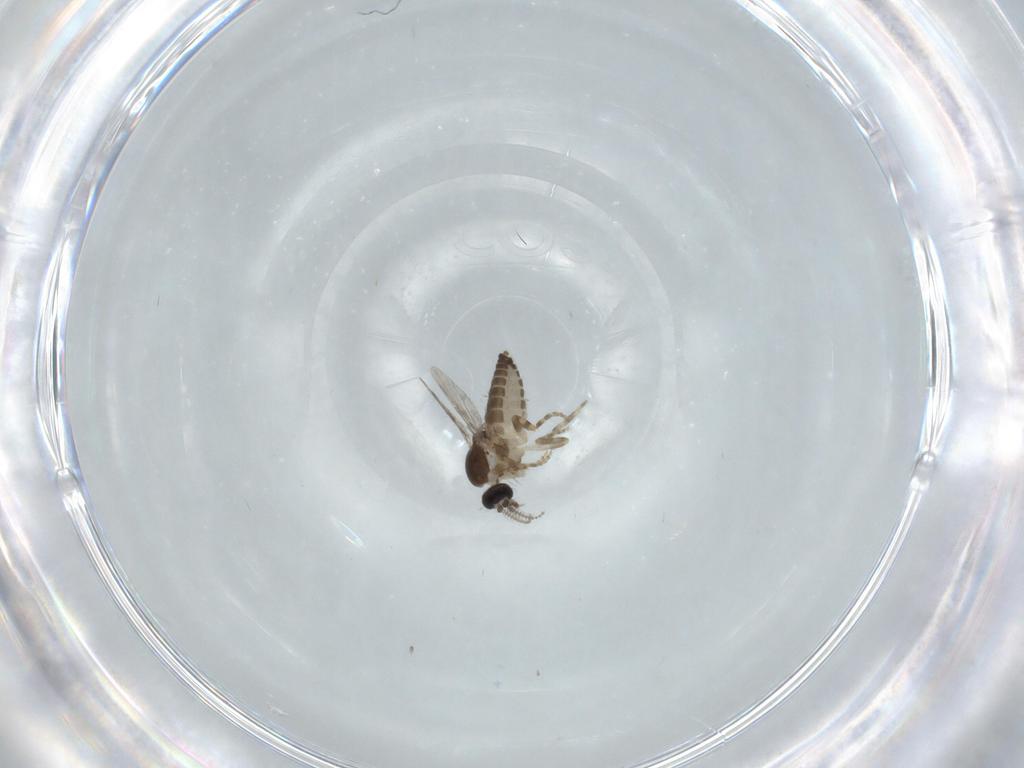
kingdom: Animalia
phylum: Arthropoda
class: Insecta
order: Diptera
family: Ceratopogonidae
